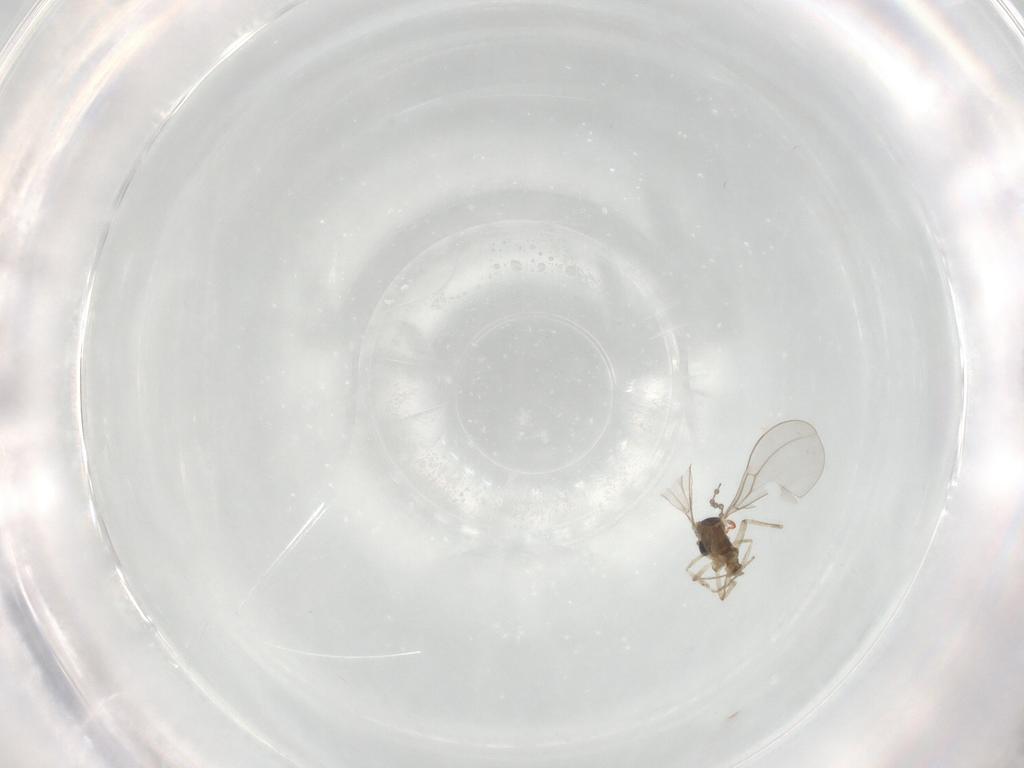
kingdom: Animalia
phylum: Arthropoda
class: Insecta
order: Diptera
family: Cecidomyiidae
